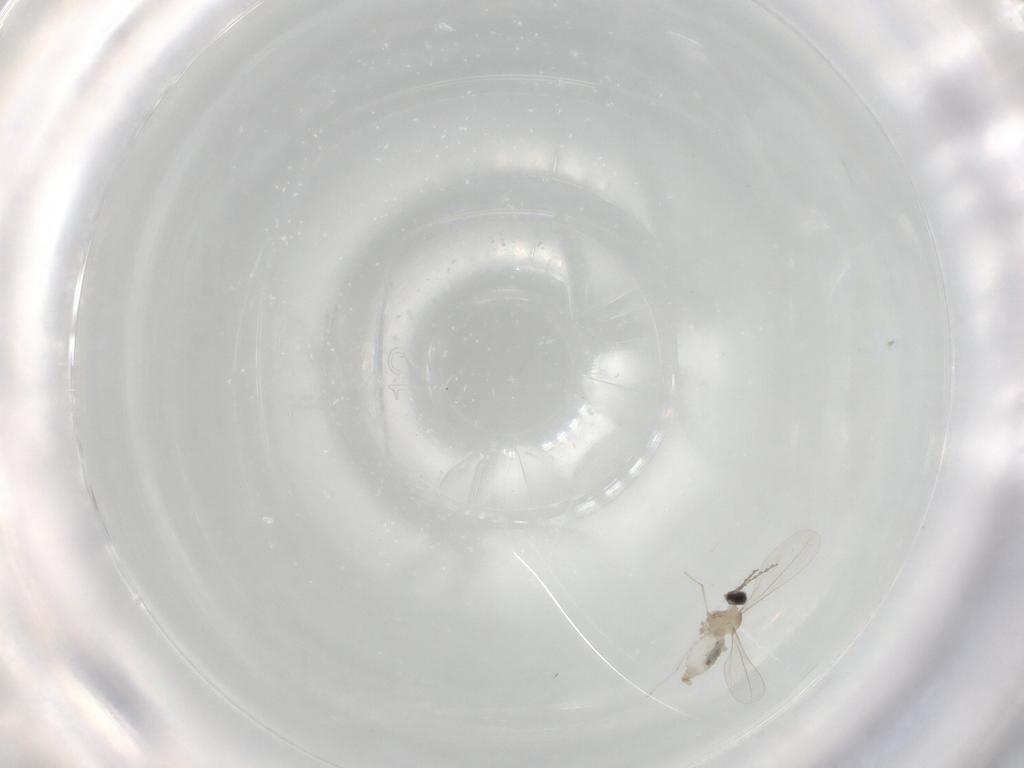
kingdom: Animalia
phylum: Arthropoda
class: Insecta
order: Diptera
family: Cecidomyiidae
